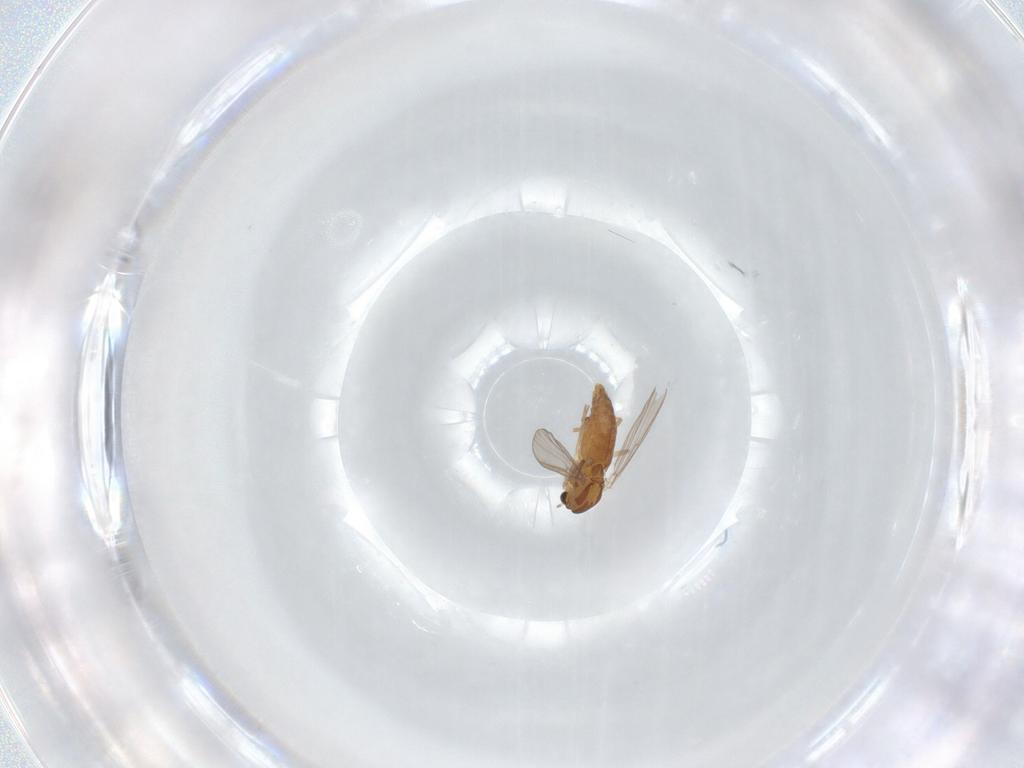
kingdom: Animalia
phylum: Arthropoda
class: Insecta
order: Diptera
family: Chironomidae
